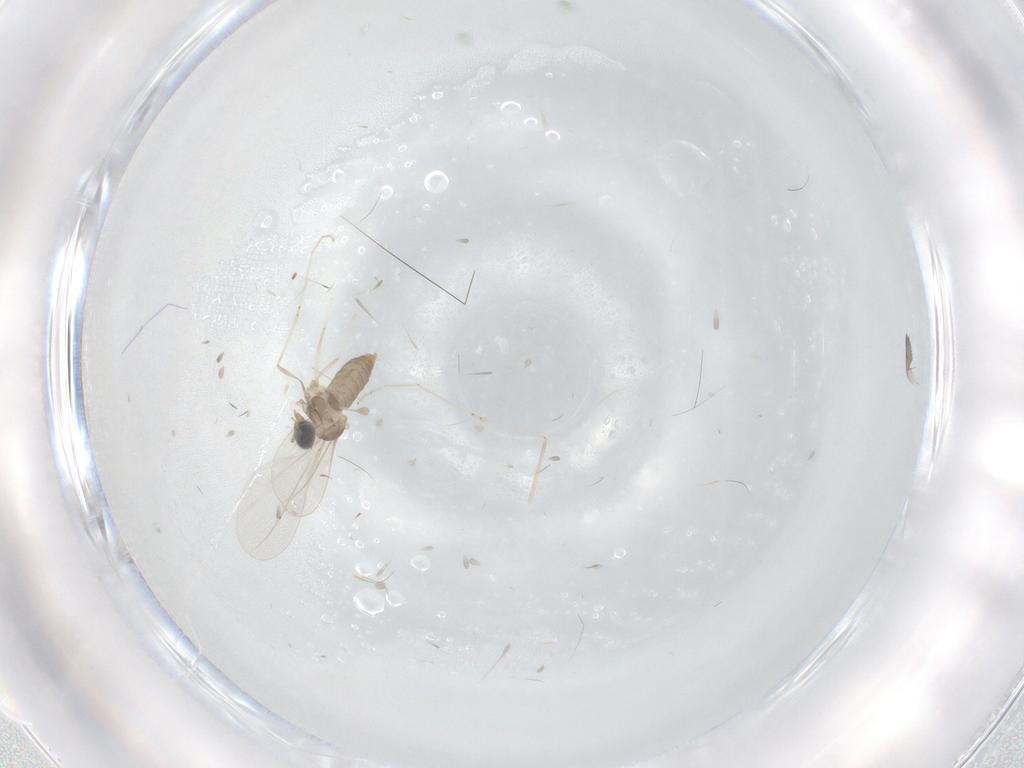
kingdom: Animalia
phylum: Arthropoda
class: Insecta
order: Diptera
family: Cecidomyiidae
